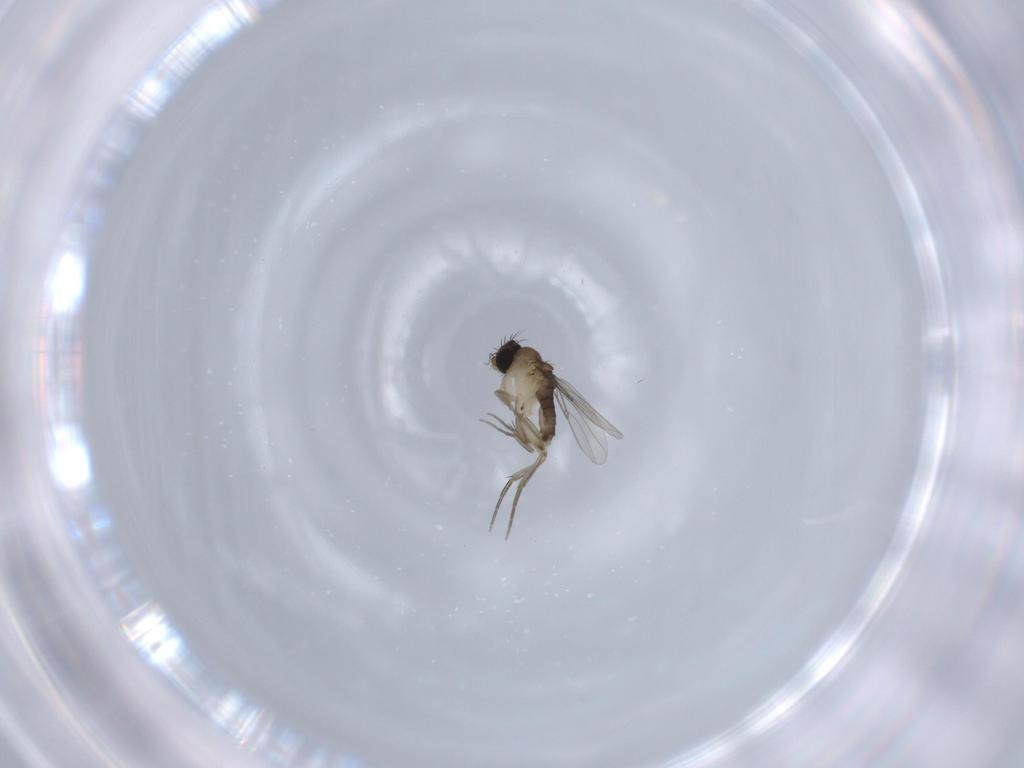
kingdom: Animalia
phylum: Arthropoda
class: Insecta
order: Diptera
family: Phoridae
